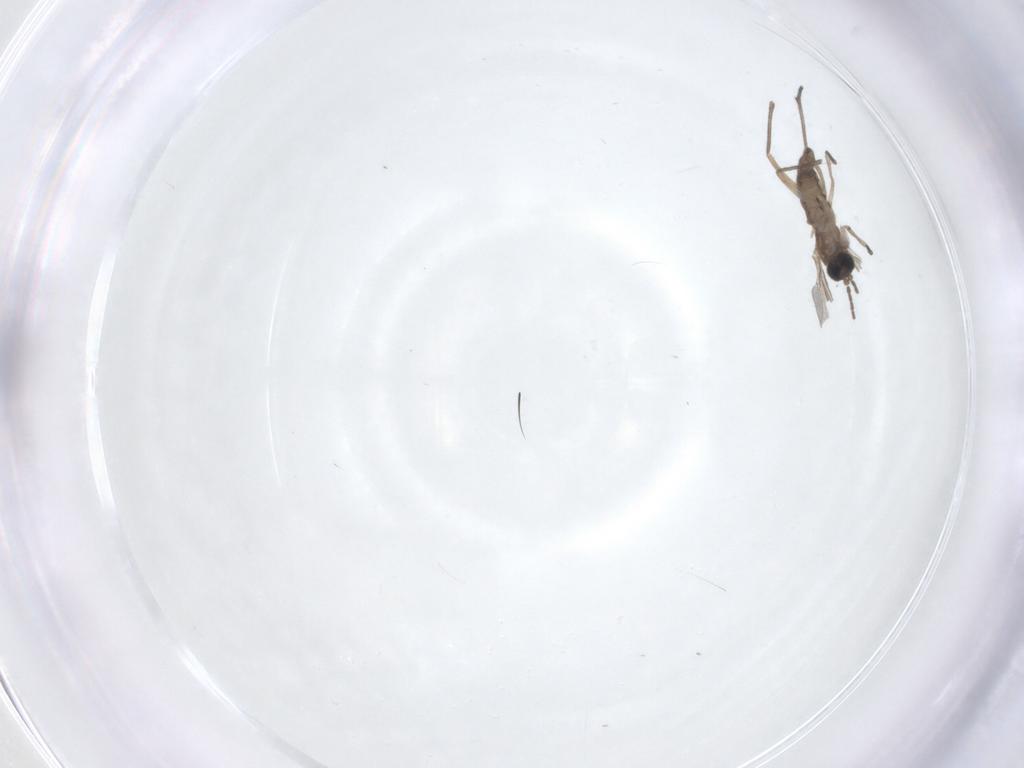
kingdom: Animalia
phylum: Arthropoda
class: Insecta
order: Diptera
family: Sciaridae
